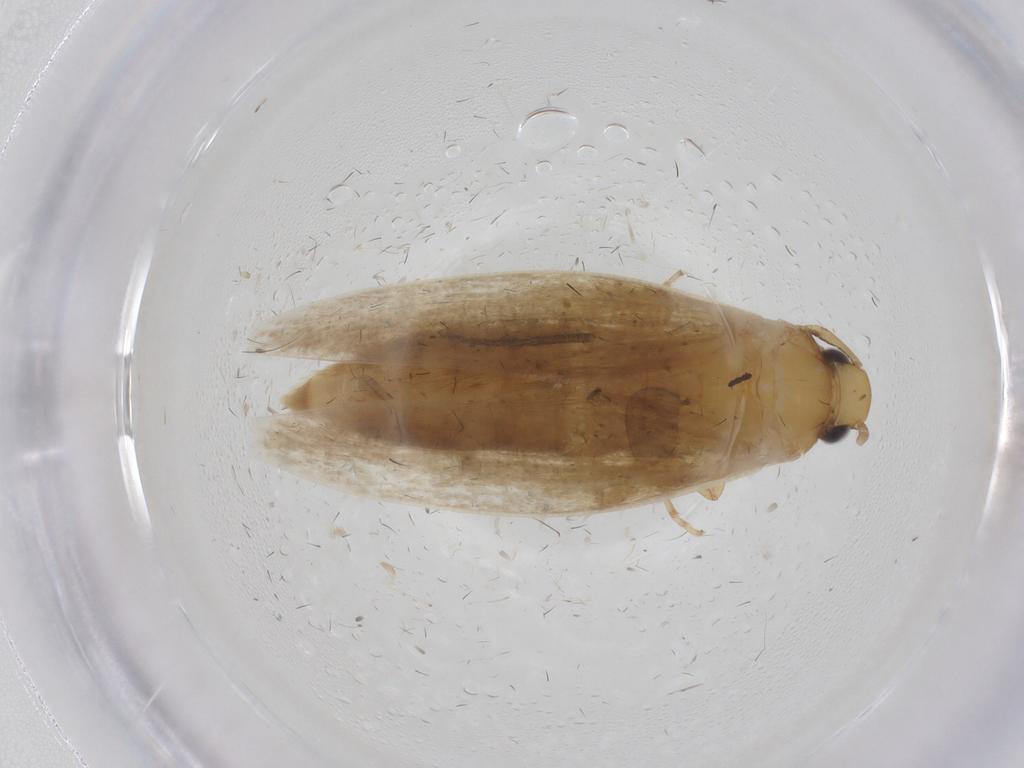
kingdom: Animalia
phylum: Arthropoda
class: Insecta
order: Lepidoptera
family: Tineidae
